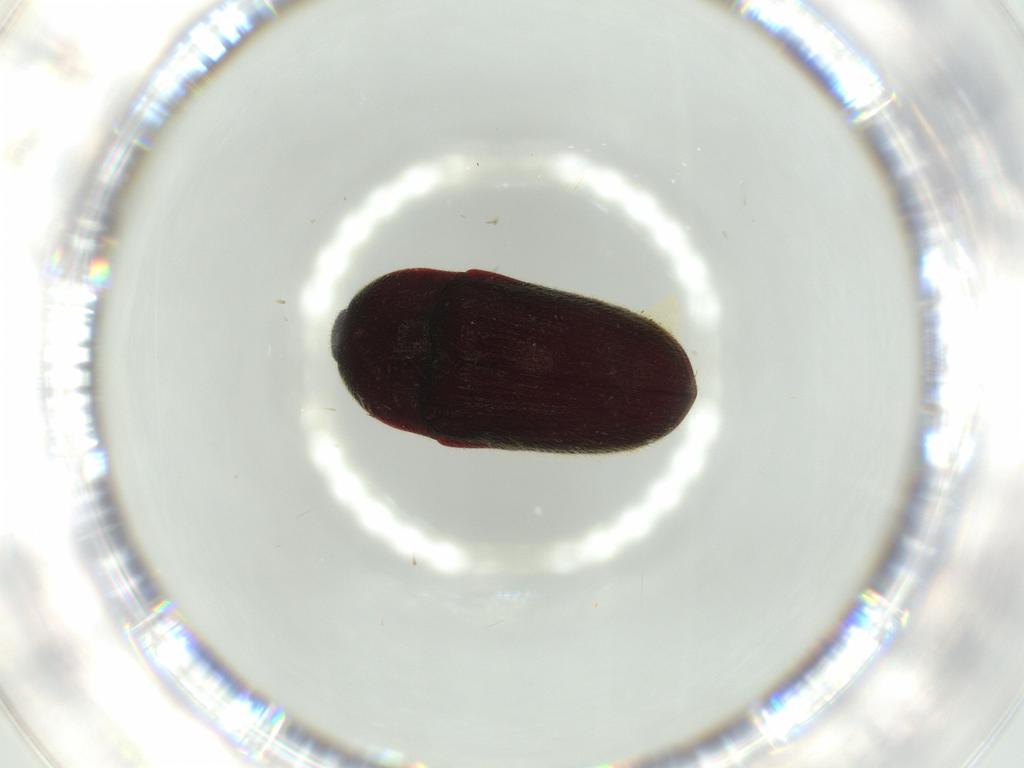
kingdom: Animalia
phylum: Arthropoda
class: Insecta
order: Coleoptera
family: Throscidae
